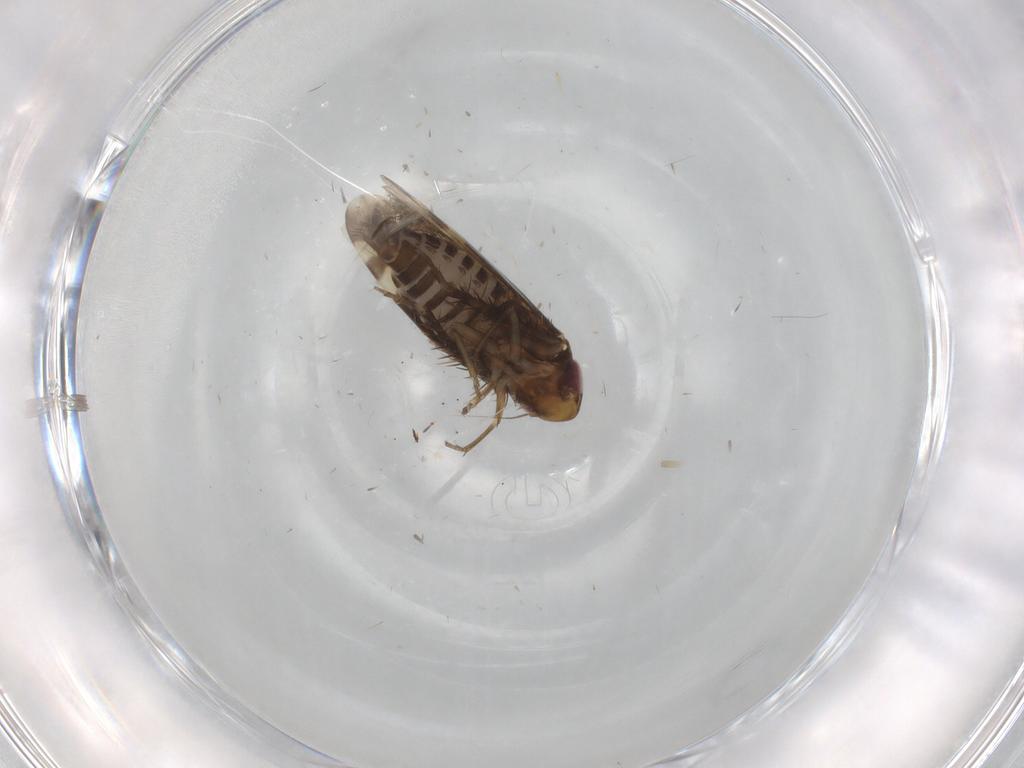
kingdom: Animalia
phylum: Arthropoda
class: Insecta
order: Hemiptera
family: Cicadellidae
